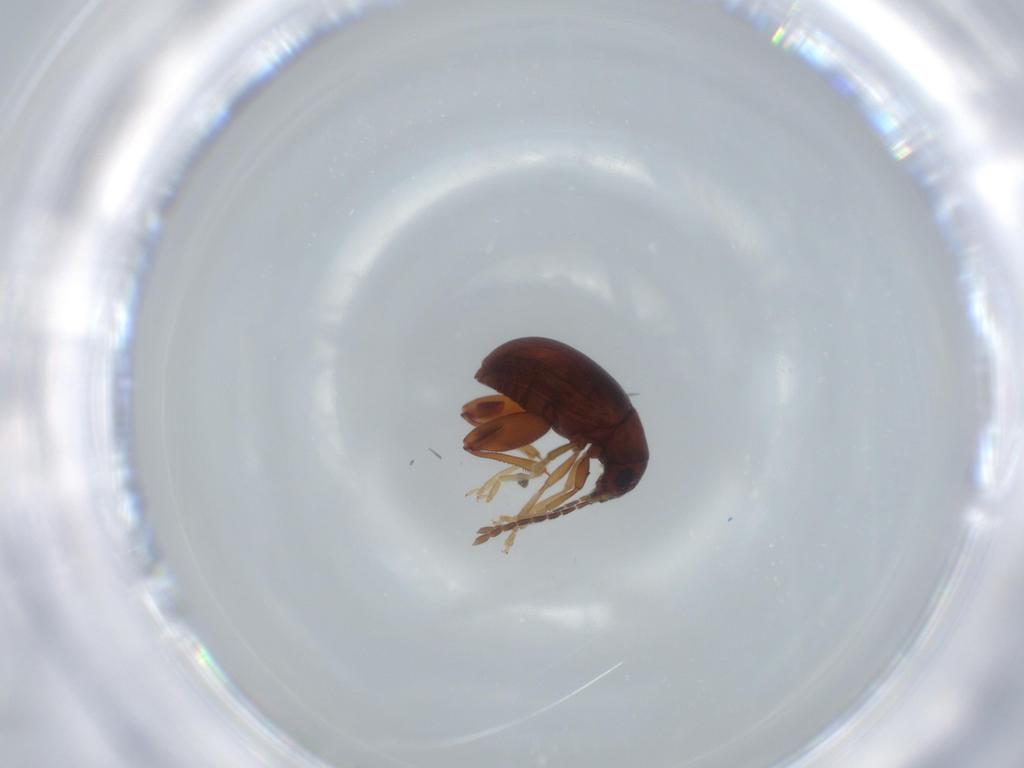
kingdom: Animalia
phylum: Arthropoda
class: Insecta
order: Coleoptera
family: Chrysomelidae
